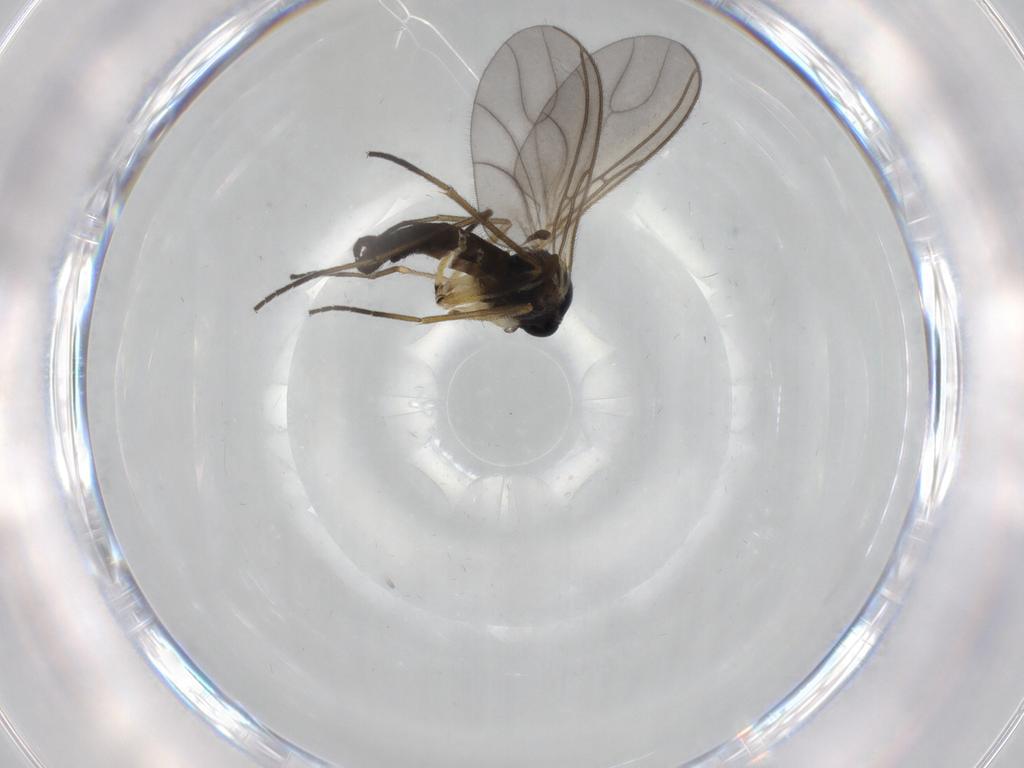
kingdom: Animalia
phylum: Arthropoda
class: Insecta
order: Diptera
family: Sciaridae
